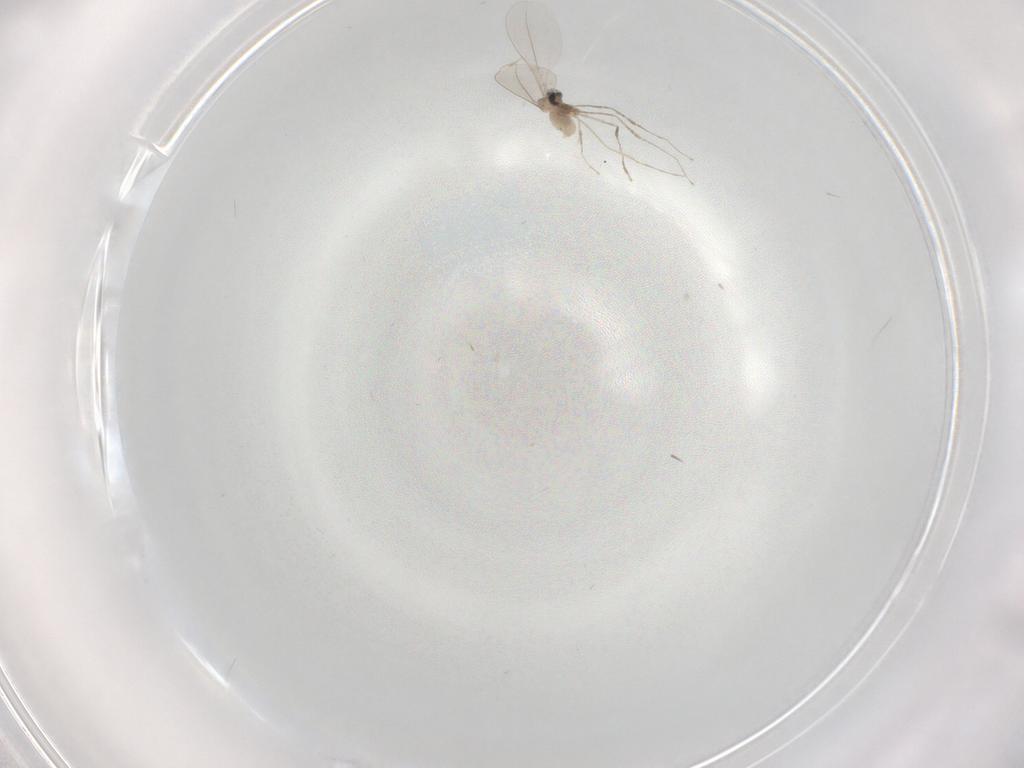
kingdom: Animalia
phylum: Arthropoda
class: Insecta
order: Diptera
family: Cecidomyiidae
